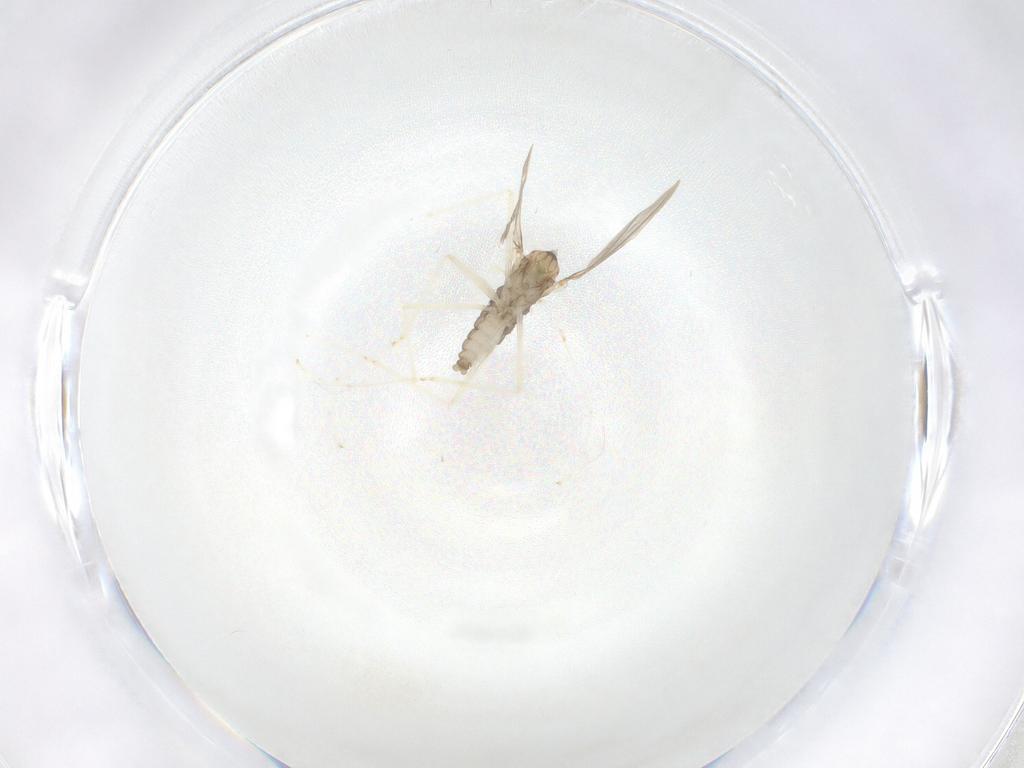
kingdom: Animalia
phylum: Arthropoda
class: Insecta
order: Diptera
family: Cecidomyiidae
